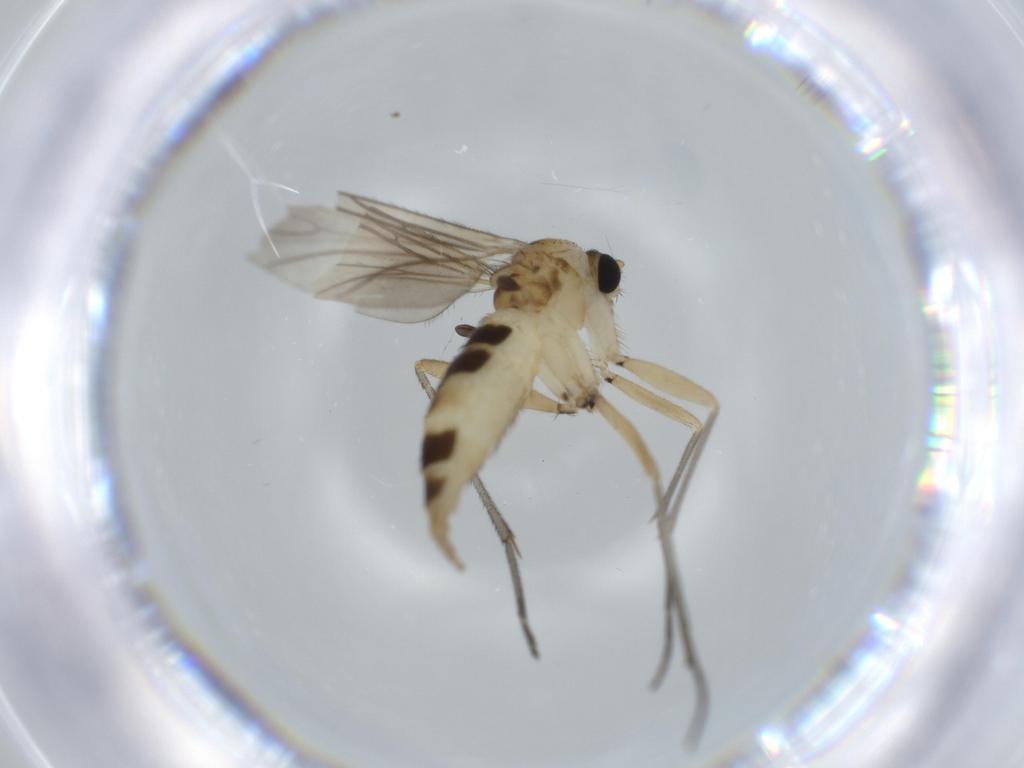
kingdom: Animalia
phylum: Arthropoda
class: Insecta
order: Diptera
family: Sciaridae
